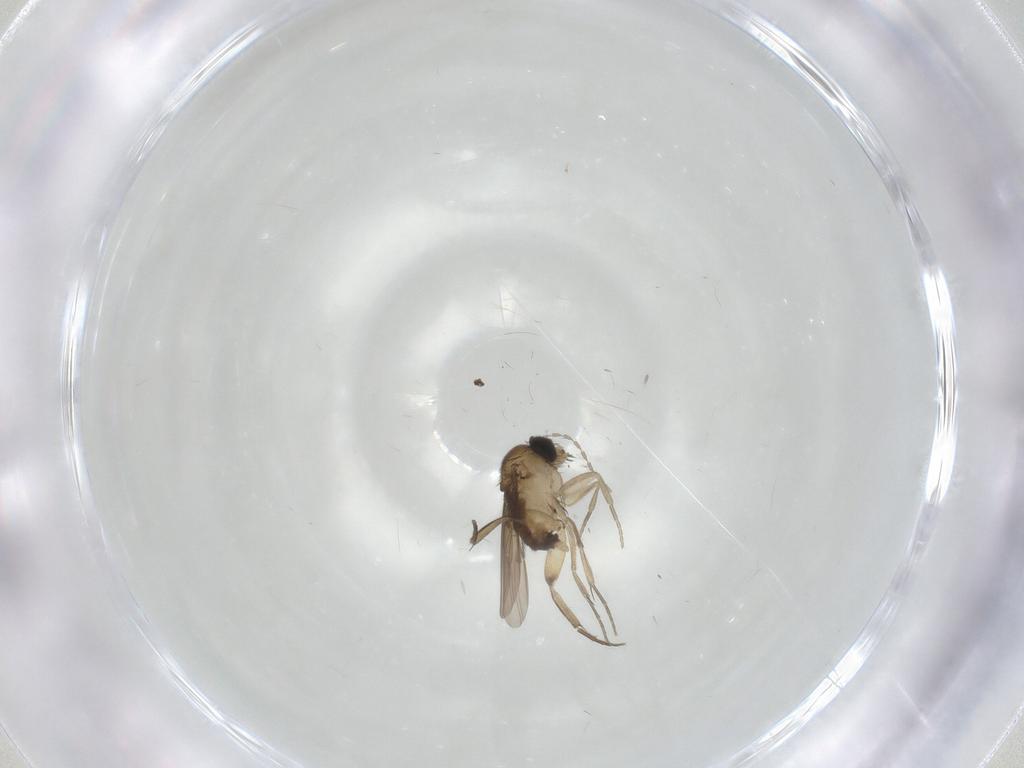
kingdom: Animalia
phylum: Arthropoda
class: Insecta
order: Diptera
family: Phoridae
